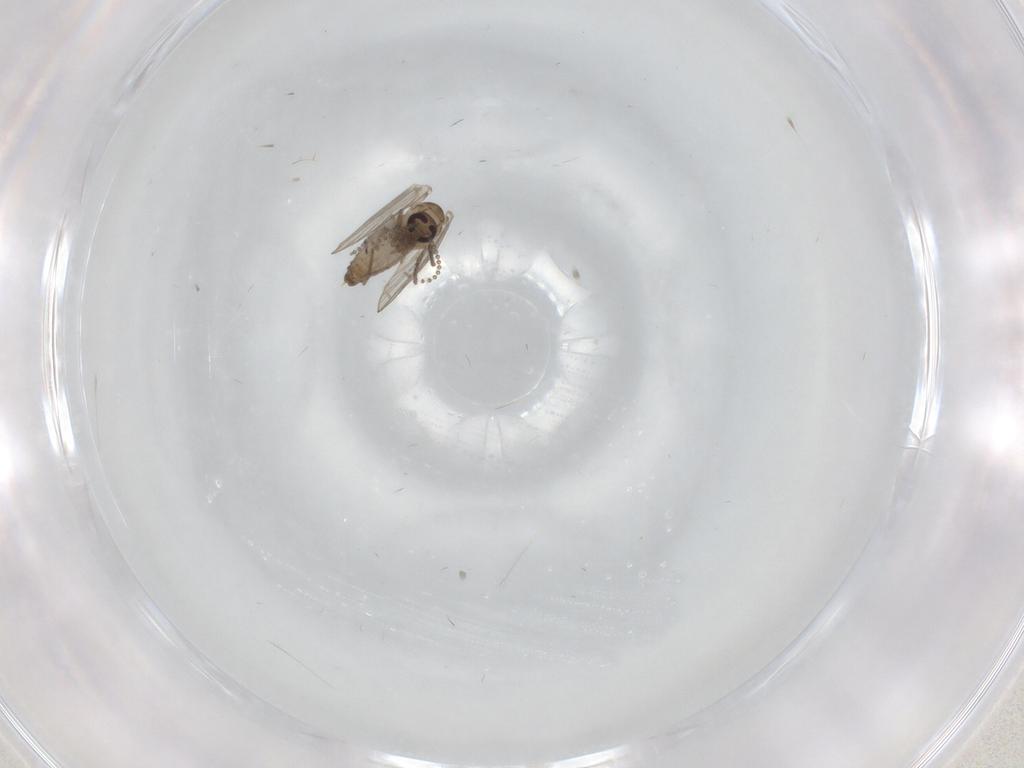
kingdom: Animalia
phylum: Arthropoda
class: Insecta
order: Diptera
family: Psychodidae
